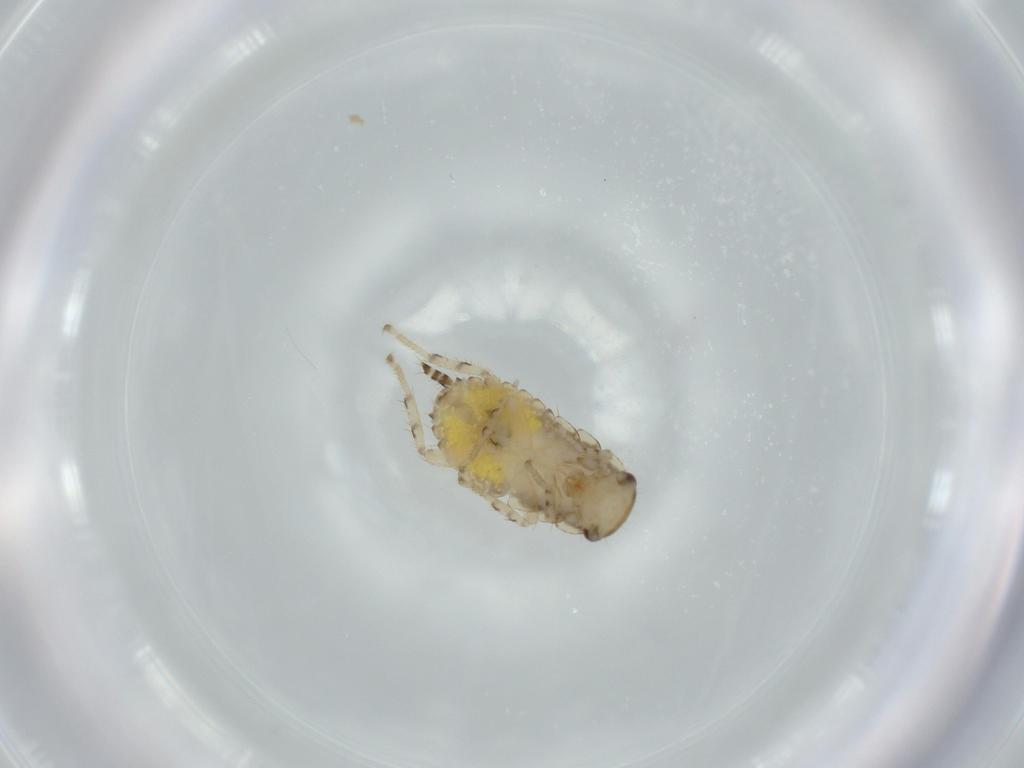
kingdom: Animalia
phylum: Arthropoda
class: Insecta
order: Blattodea
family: Ectobiidae
